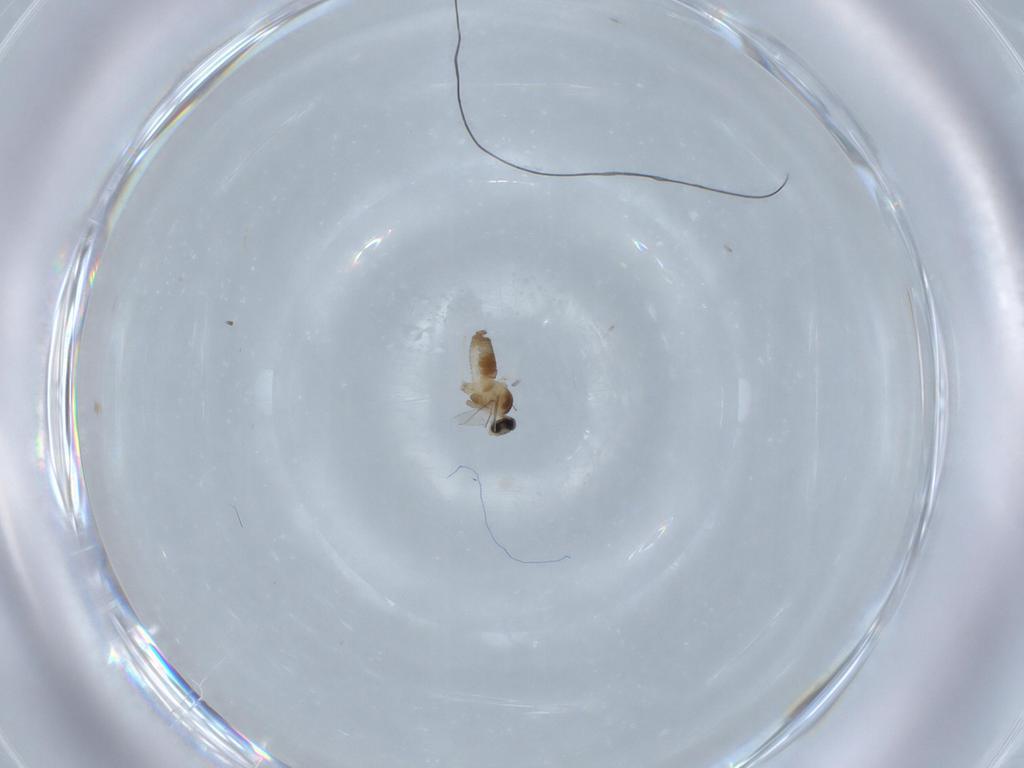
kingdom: Animalia
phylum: Arthropoda
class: Insecta
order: Diptera
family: Cecidomyiidae
